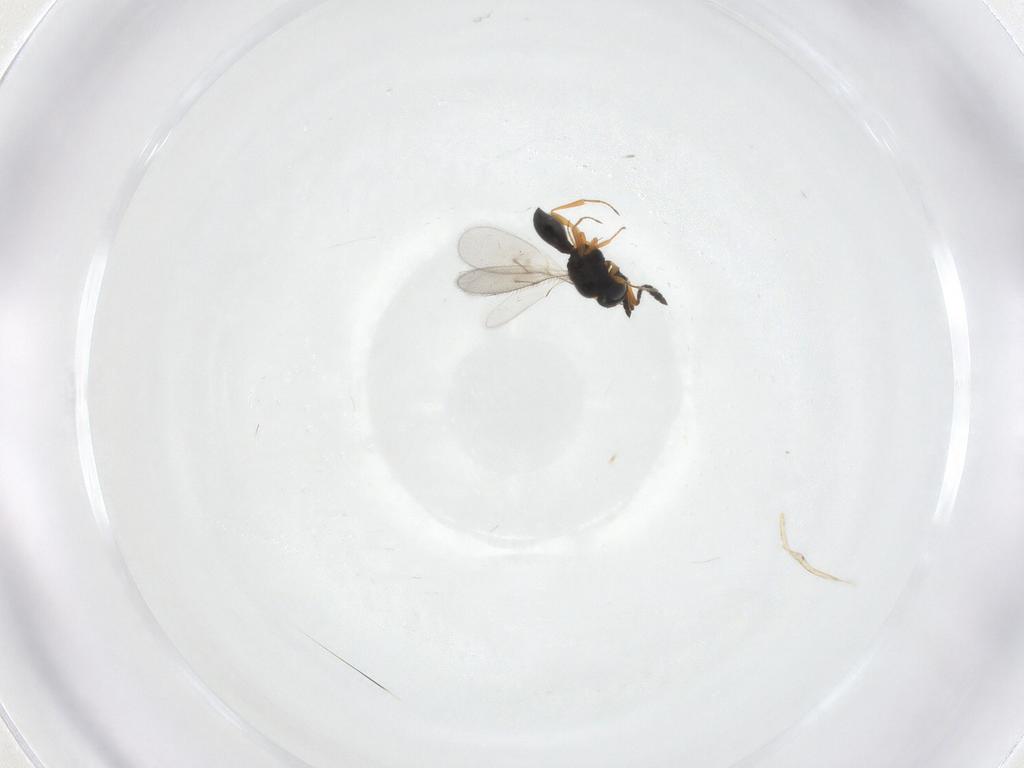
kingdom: Animalia
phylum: Arthropoda
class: Insecta
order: Hymenoptera
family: Scelionidae
